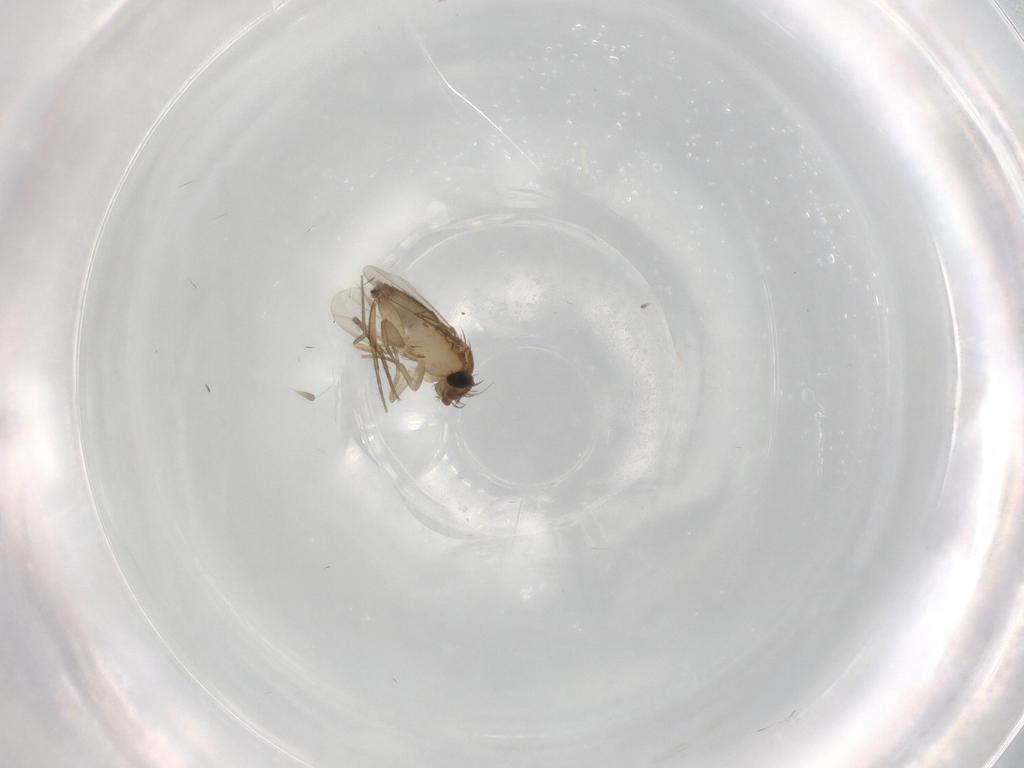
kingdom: Animalia
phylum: Arthropoda
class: Insecta
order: Diptera
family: Phoridae
